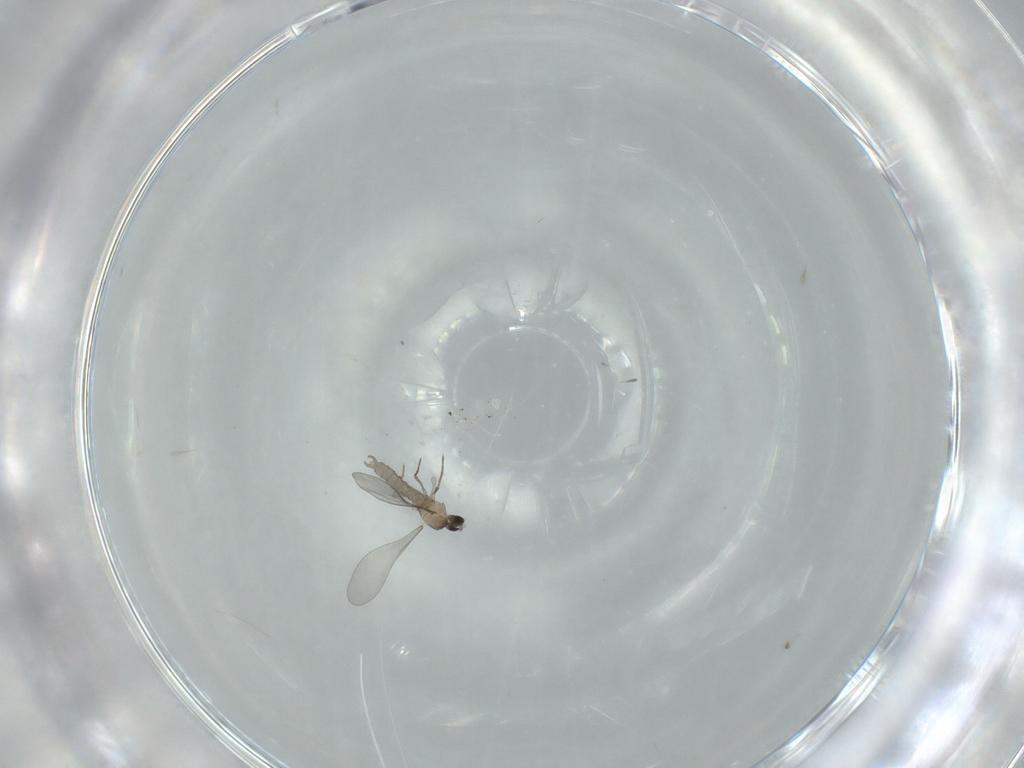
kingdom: Animalia
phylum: Arthropoda
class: Insecta
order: Diptera
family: Cecidomyiidae
